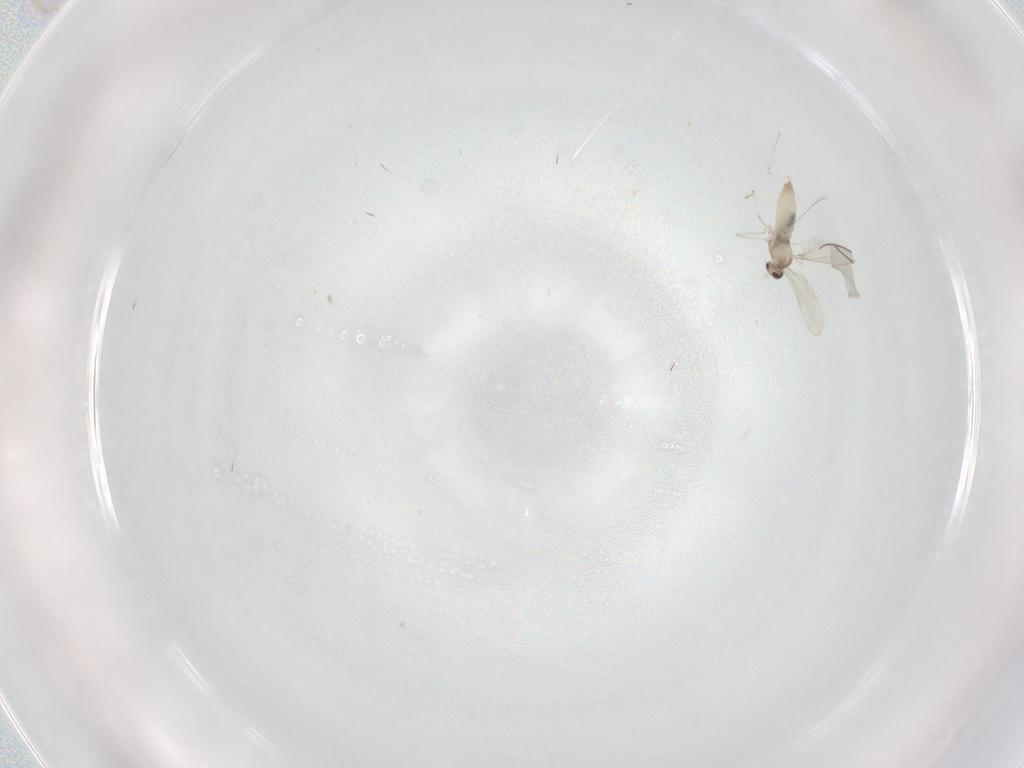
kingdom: Animalia
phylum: Arthropoda
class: Insecta
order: Diptera
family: Cecidomyiidae
